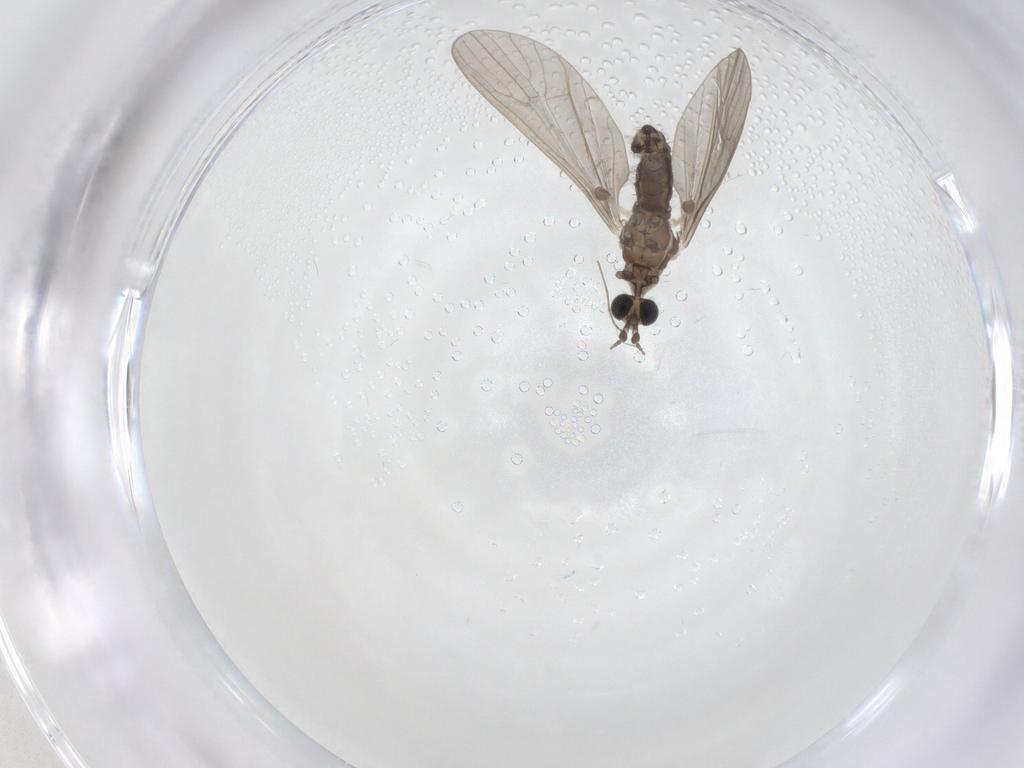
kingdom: Animalia
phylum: Arthropoda
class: Insecta
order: Diptera
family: Limoniidae
